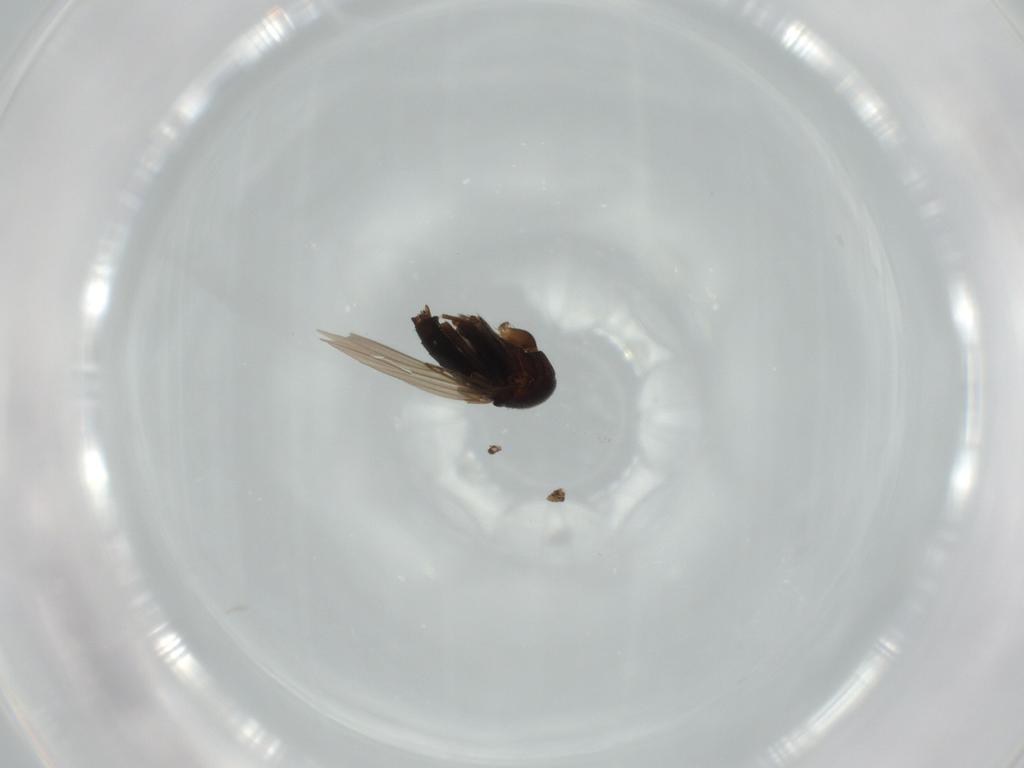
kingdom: Animalia
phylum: Arthropoda
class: Insecta
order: Diptera
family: Phoridae
